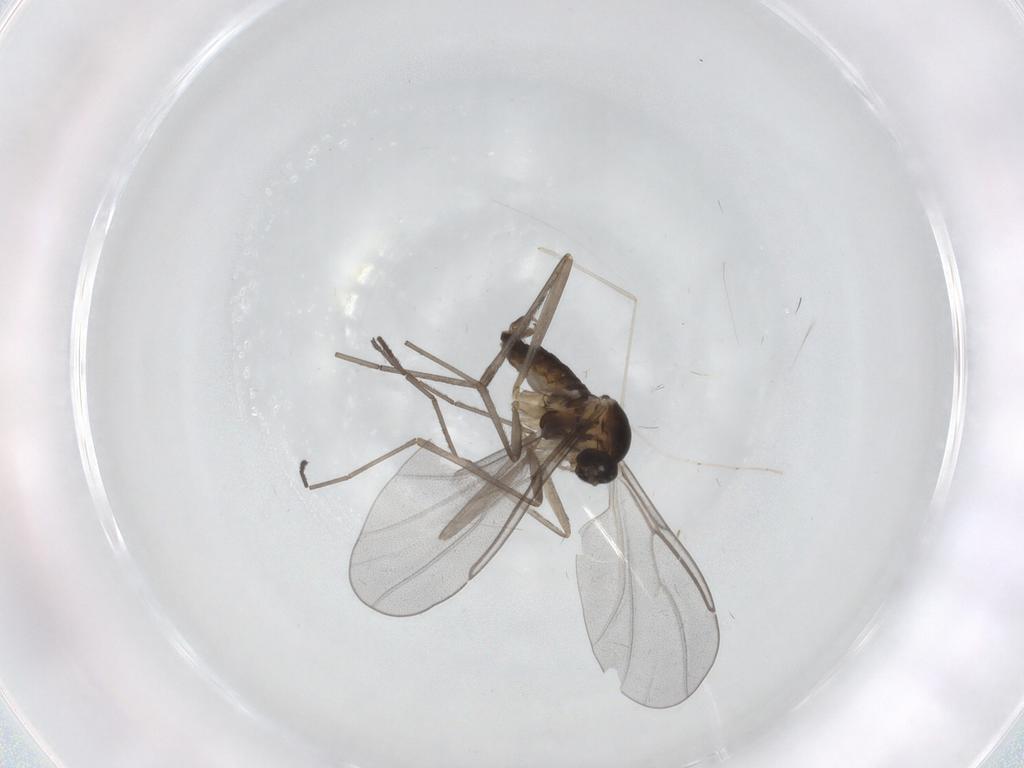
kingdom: Animalia
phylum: Arthropoda
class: Insecta
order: Diptera
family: Cecidomyiidae
